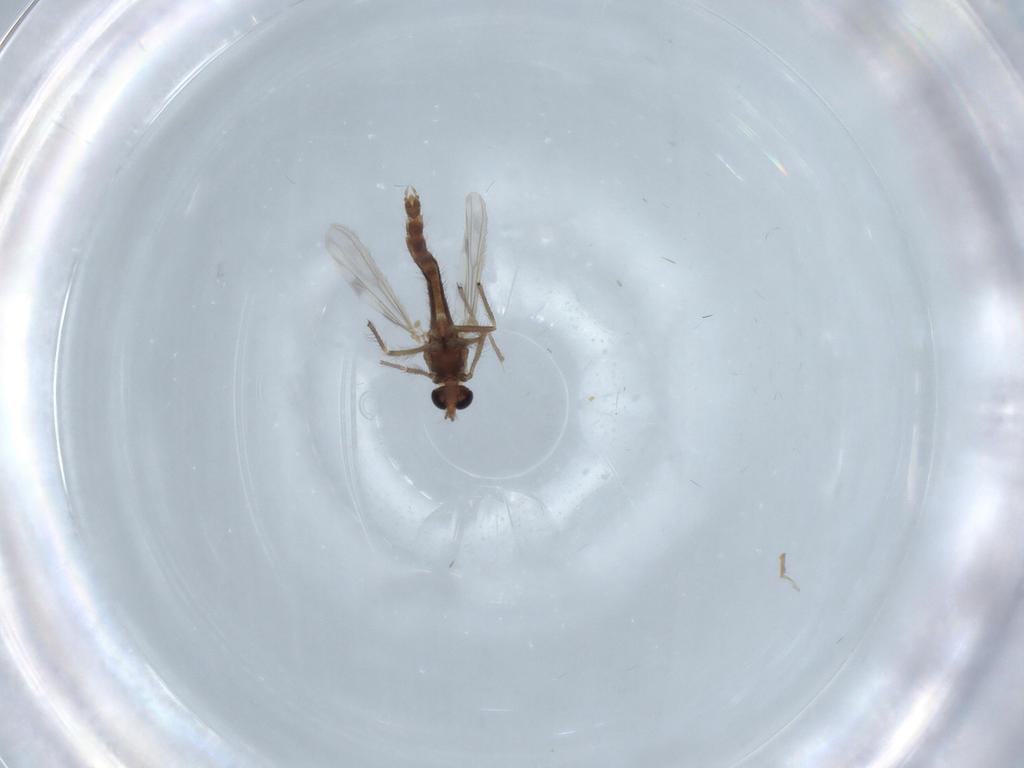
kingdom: Animalia
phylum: Arthropoda
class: Insecta
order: Diptera
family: Chironomidae
